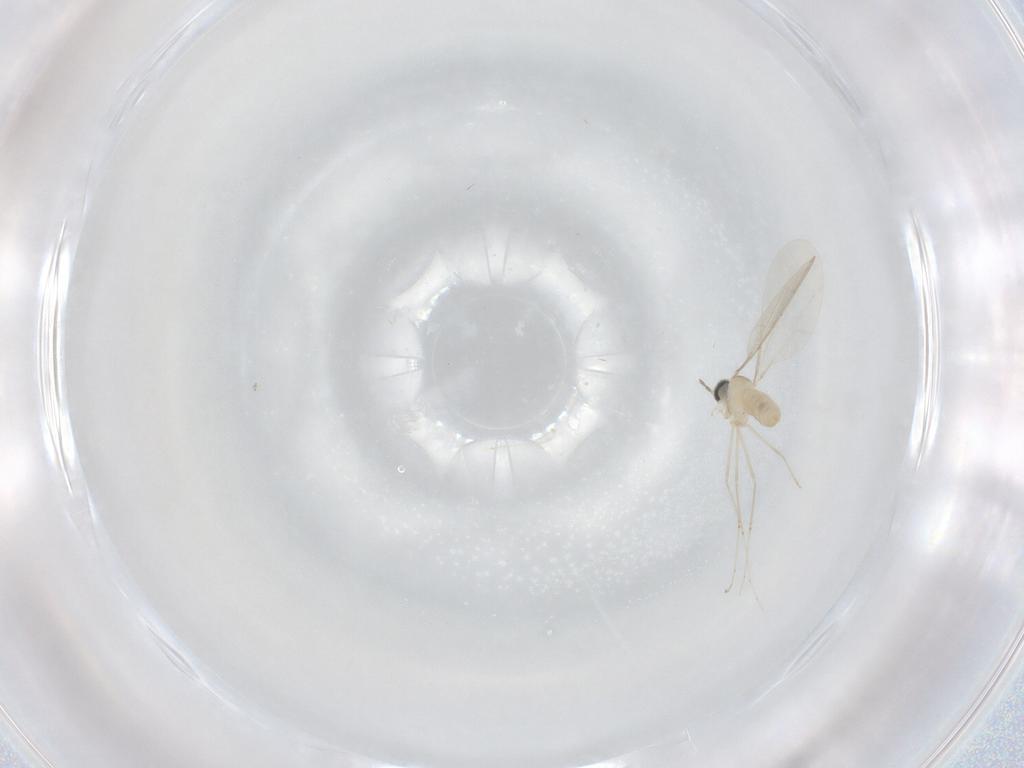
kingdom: Animalia
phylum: Arthropoda
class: Insecta
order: Diptera
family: Cecidomyiidae
